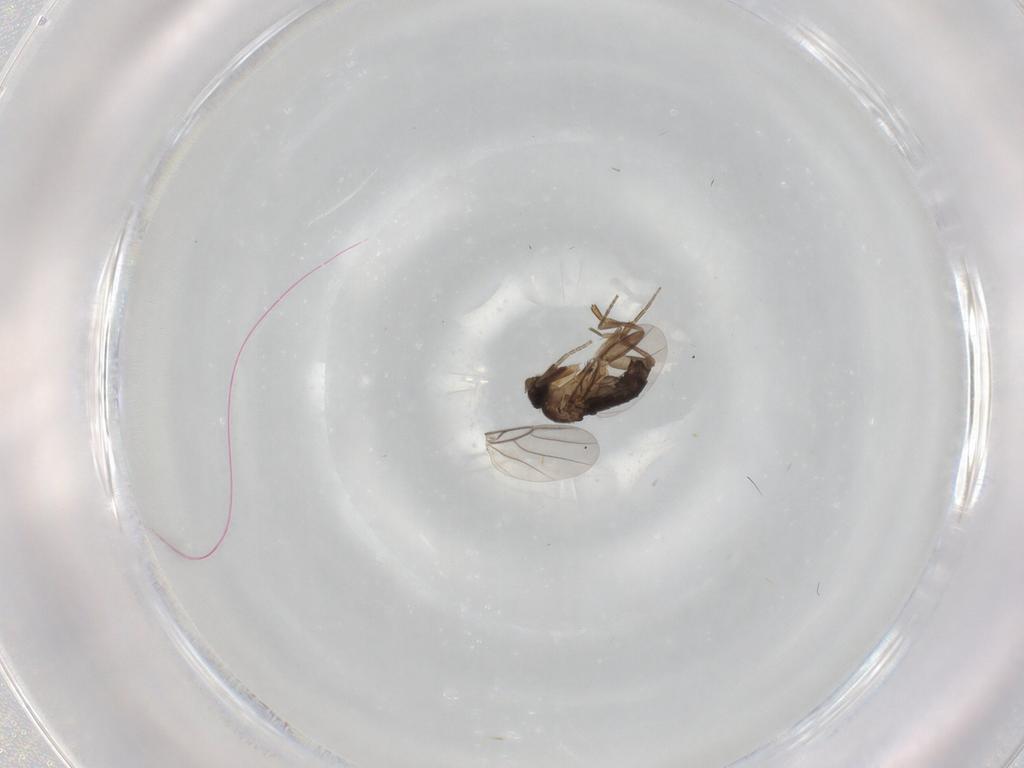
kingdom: Animalia
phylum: Arthropoda
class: Insecta
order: Diptera
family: Phoridae
